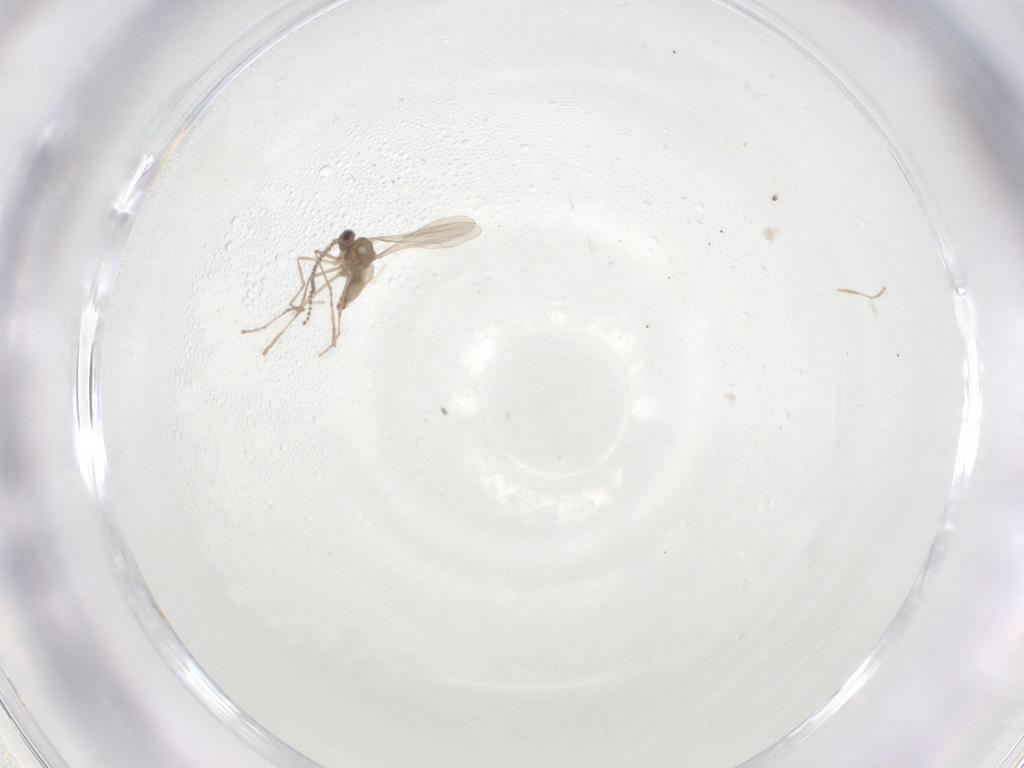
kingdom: Animalia
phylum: Arthropoda
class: Insecta
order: Diptera
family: Cecidomyiidae
